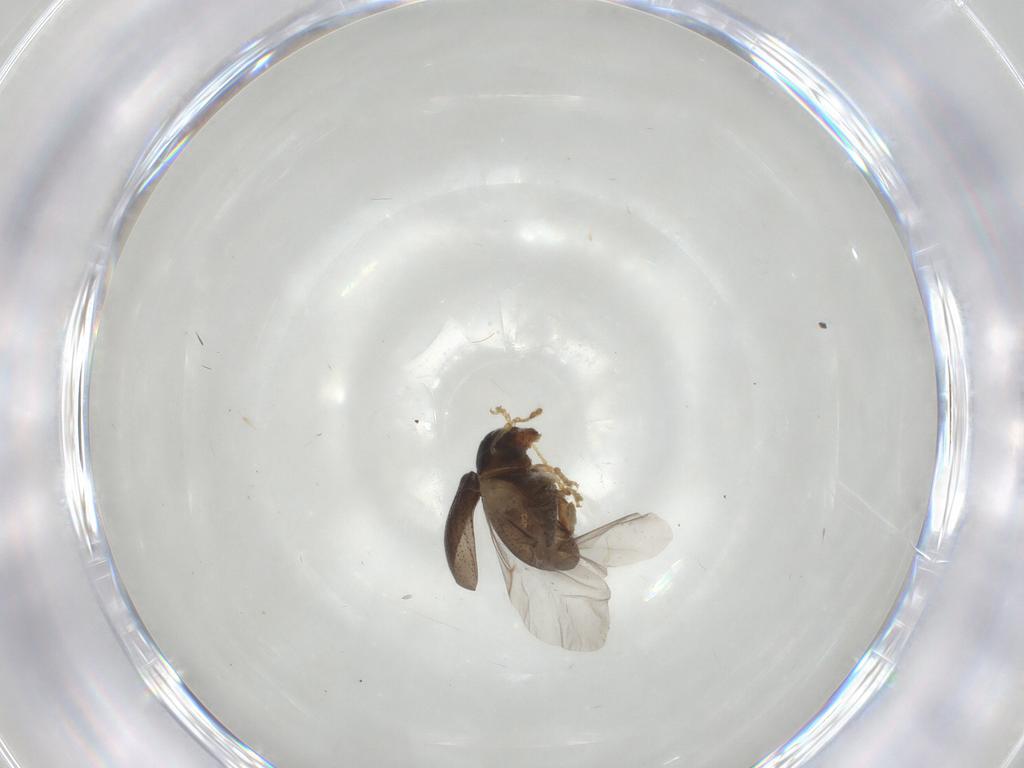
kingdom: Animalia
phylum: Arthropoda
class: Insecta
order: Coleoptera
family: Chrysomelidae
